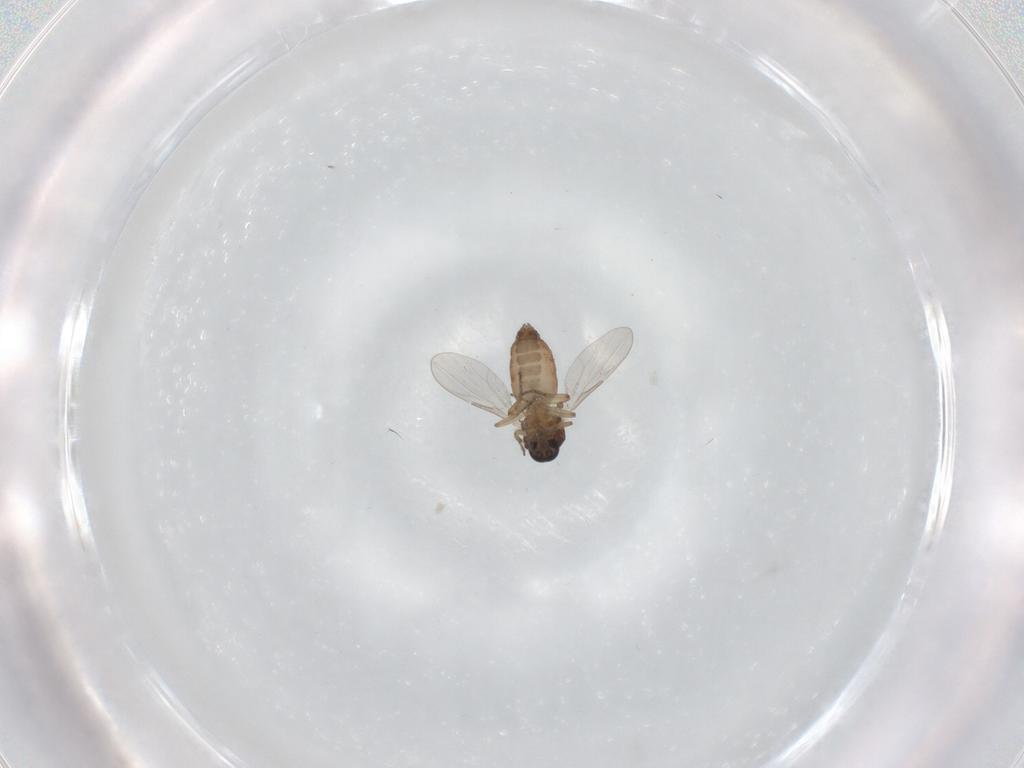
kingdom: Animalia
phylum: Arthropoda
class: Insecta
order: Diptera
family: Ceratopogonidae
